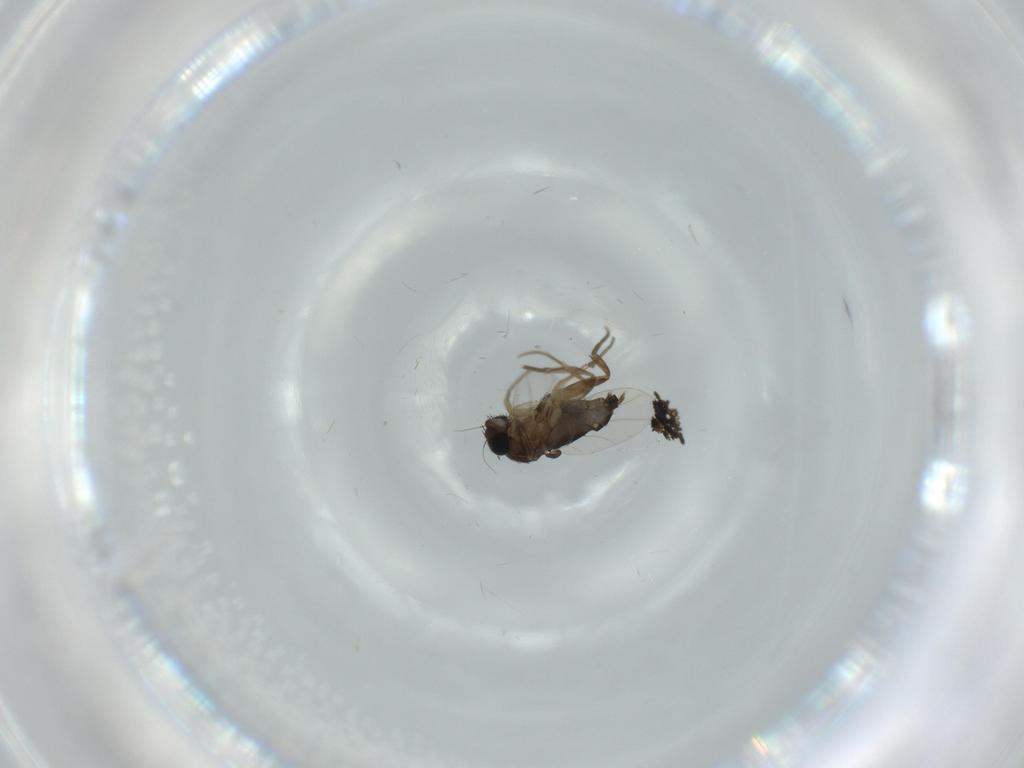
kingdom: Animalia
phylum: Arthropoda
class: Insecta
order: Diptera
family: Phoridae
